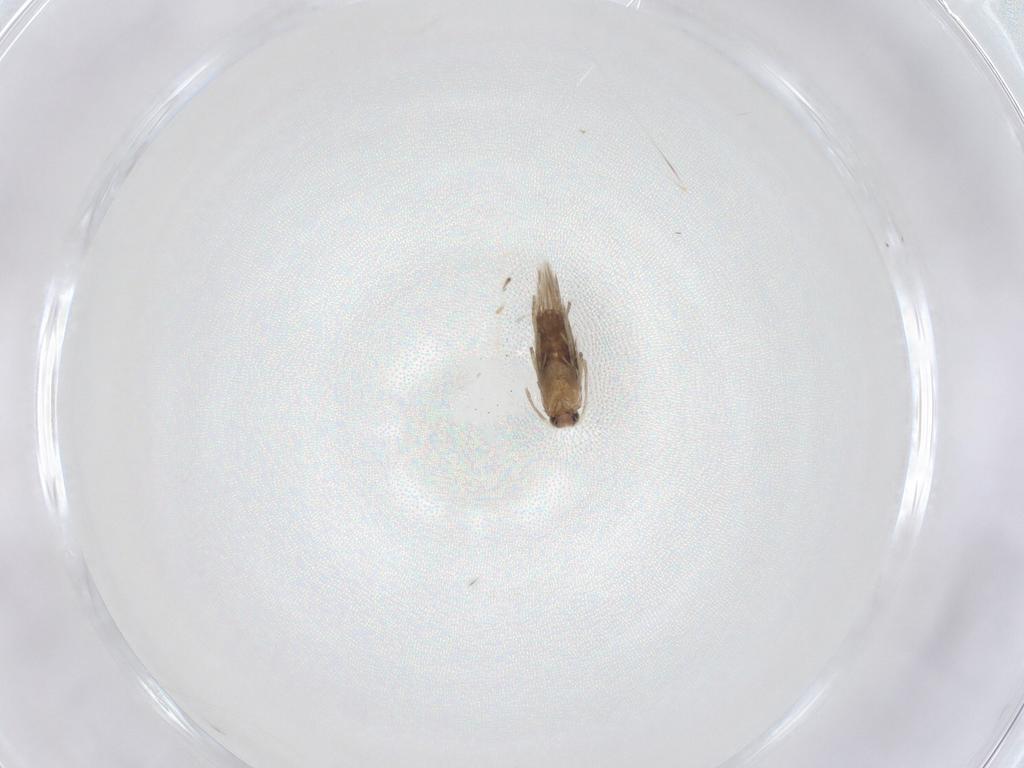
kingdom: Animalia
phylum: Arthropoda
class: Insecta
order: Lepidoptera
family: Nepticulidae
